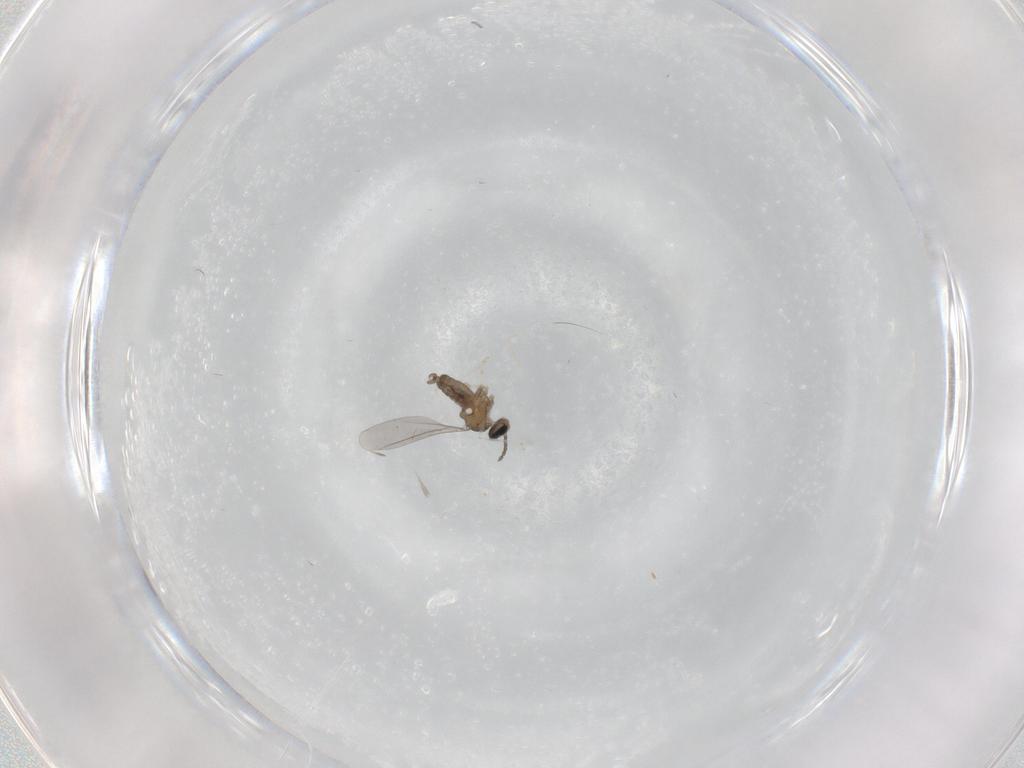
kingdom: Animalia
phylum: Arthropoda
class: Insecta
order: Diptera
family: Cecidomyiidae
